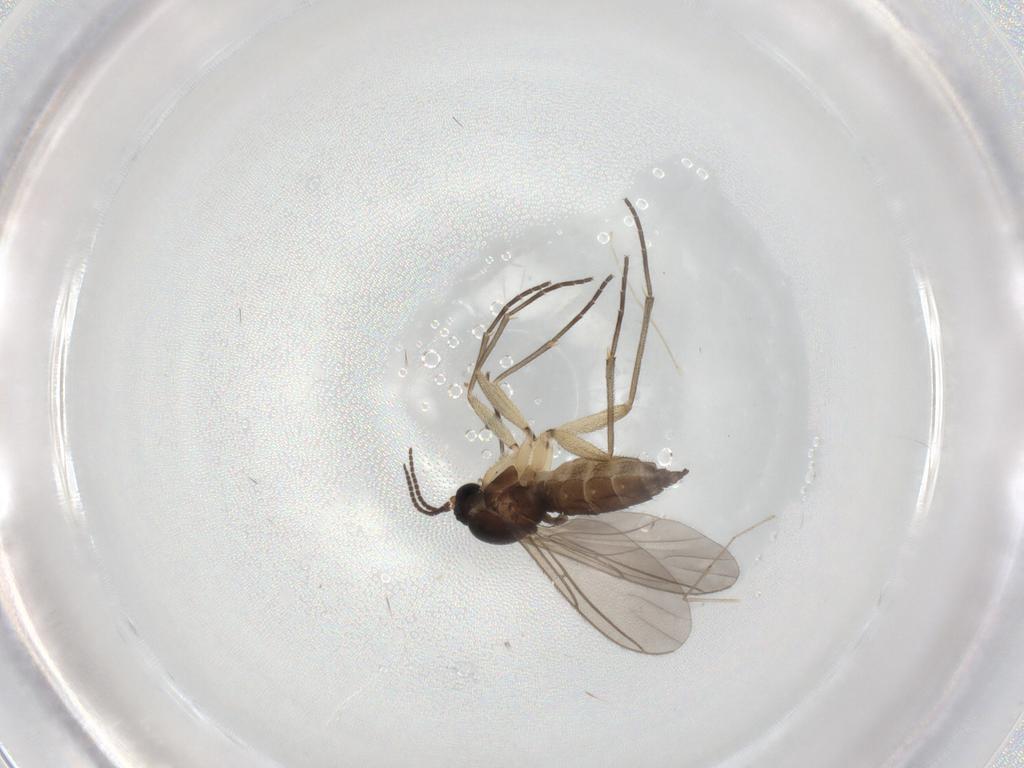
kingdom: Animalia
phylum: Arthropoda
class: Insecta
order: Diptera
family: Sciaridae
